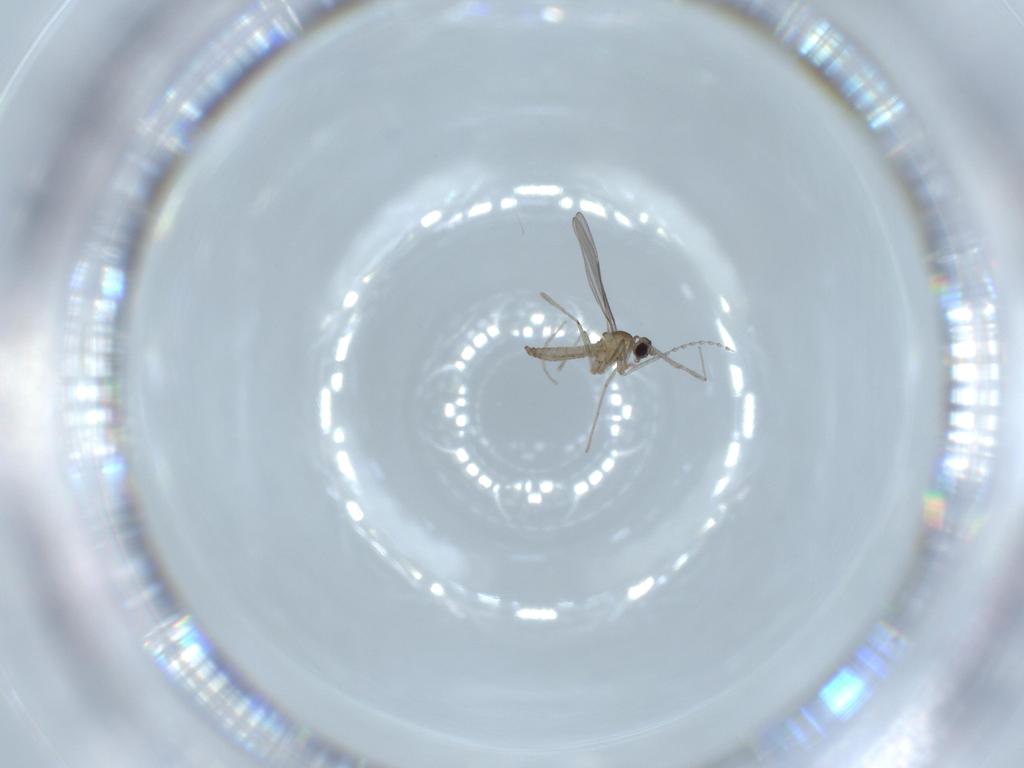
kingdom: Animalia
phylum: Arthropoda
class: Insecta
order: Diptera
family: Cecidomyiidae
